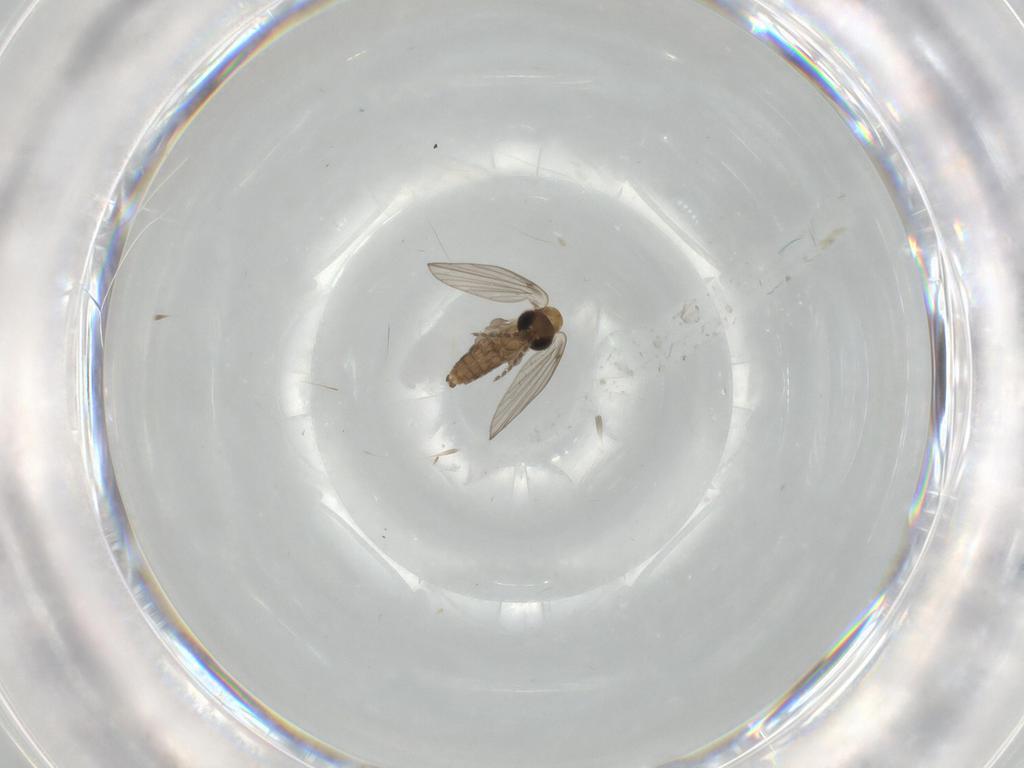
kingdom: Animalia
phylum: Arthropoda
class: Insecta
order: Diptera
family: Psychodidae
